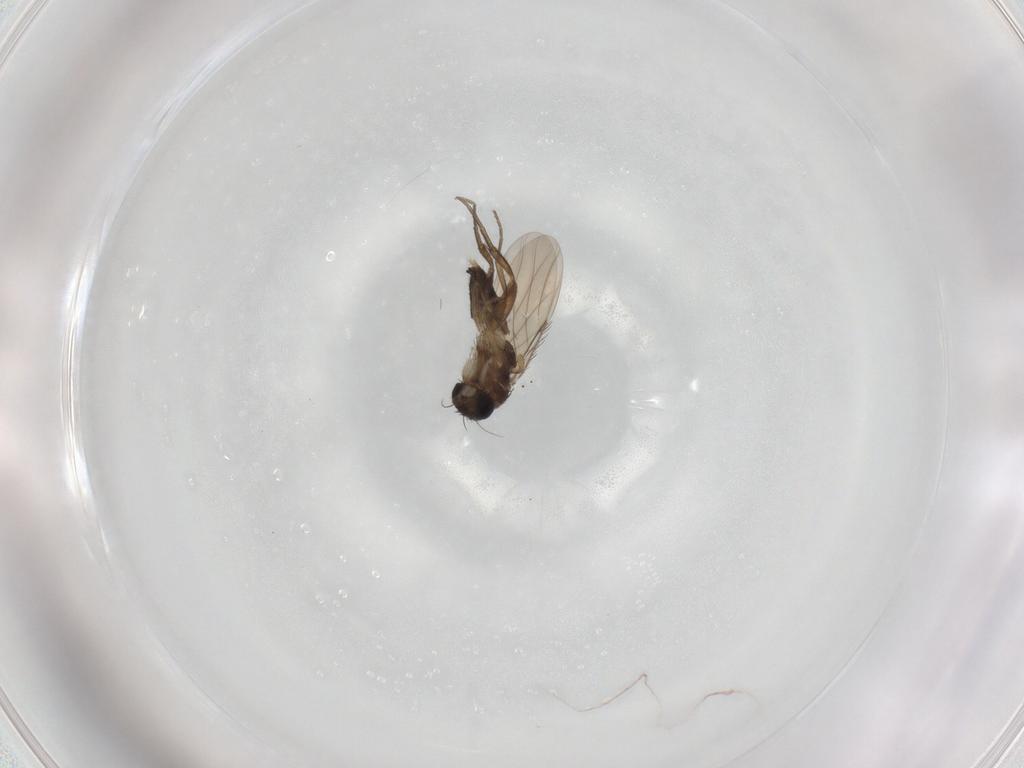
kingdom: Animalia
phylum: Arthropoda
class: Insecta
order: Diptera
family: Phoridae
